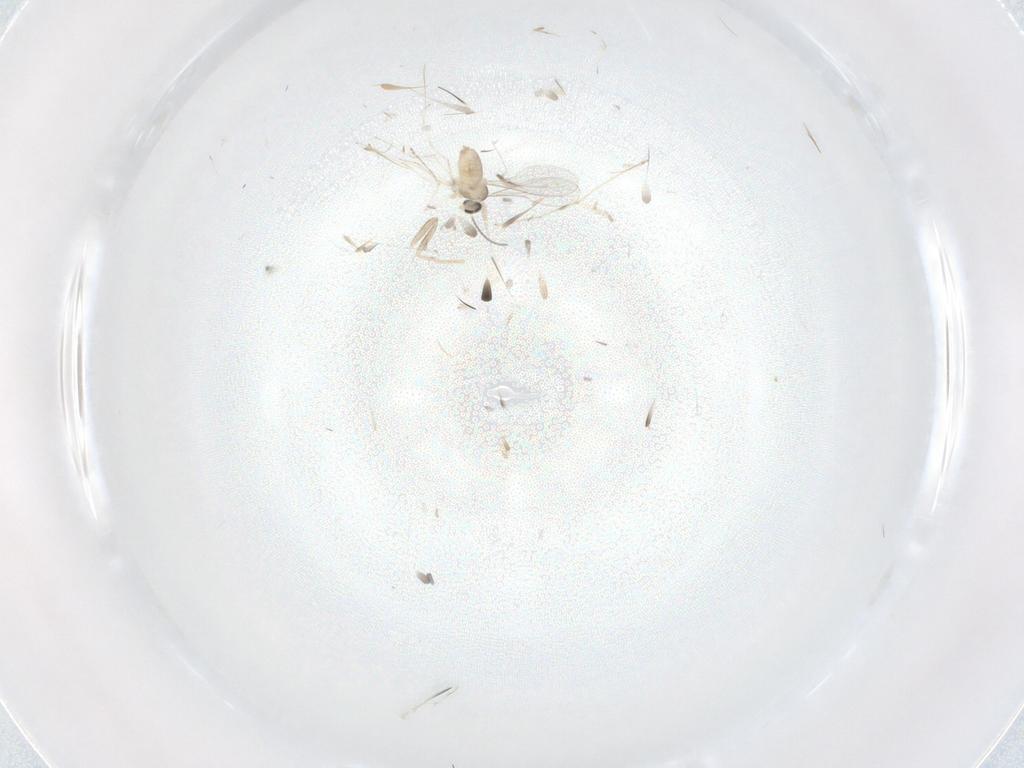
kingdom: Animalia
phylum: Arthropoda
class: Insecta
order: Diptera
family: Cecidomyiidae
